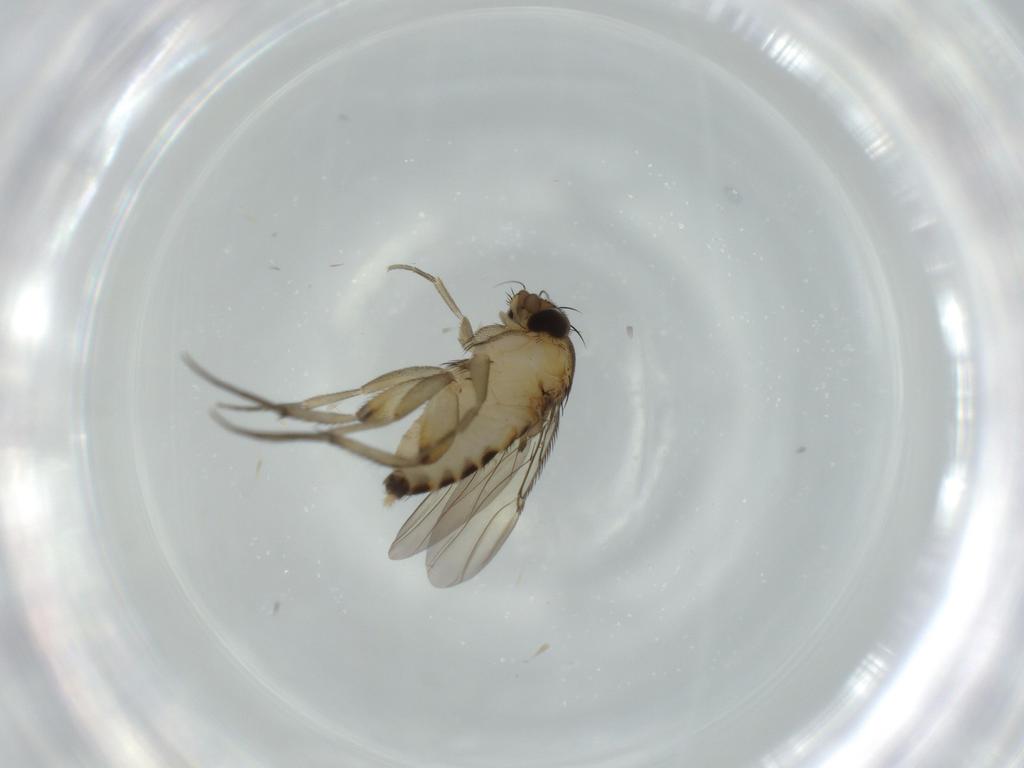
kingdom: Animalia
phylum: Arthropoda
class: Insecta
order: Diptera
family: Phoridae
